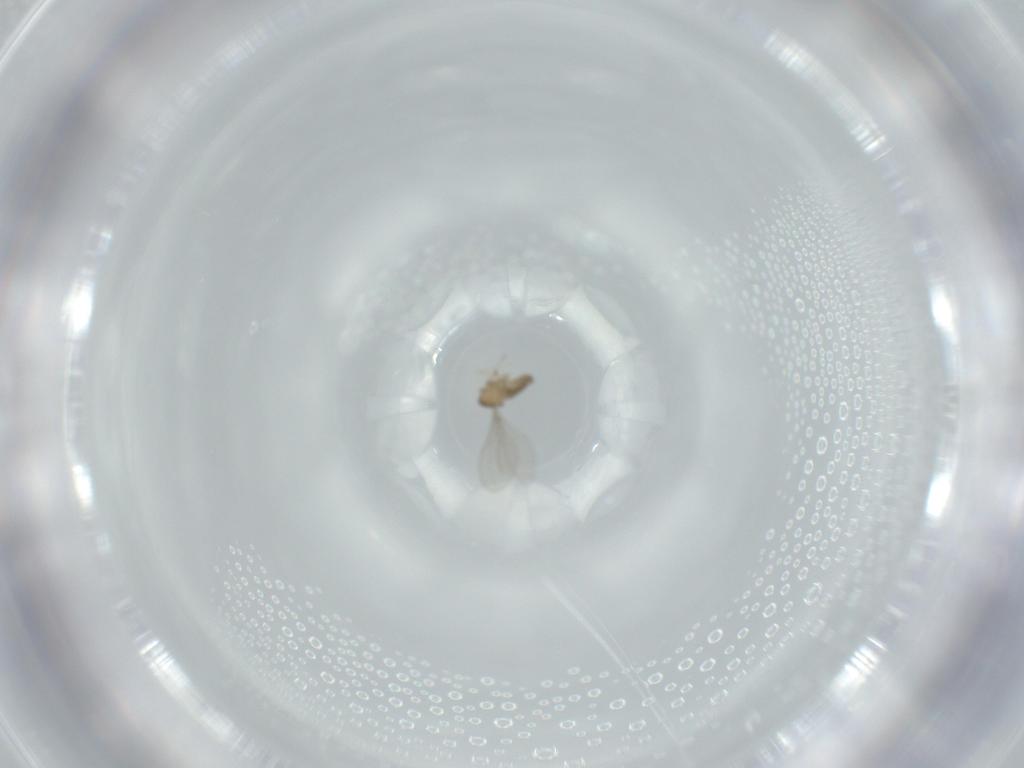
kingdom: Animalia
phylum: Arthropoda
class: Insecta
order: Diptera
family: Cecidomyiidae
